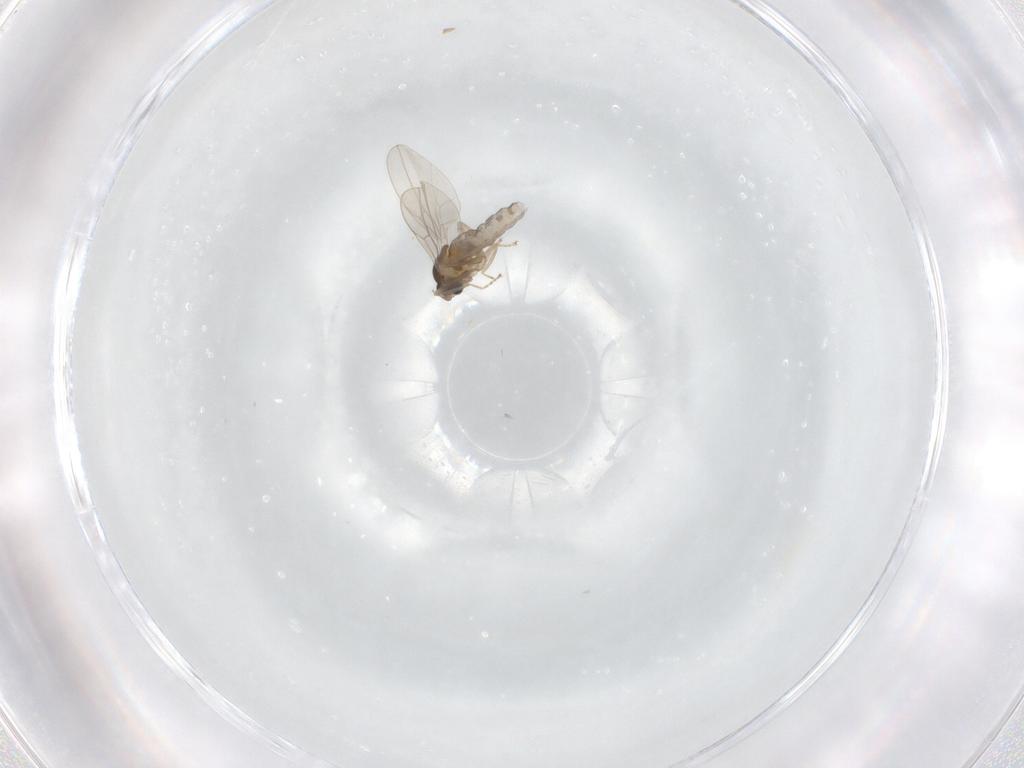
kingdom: Animalia
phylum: Arthropoda
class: Insecta
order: Diptera
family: Cecidomyiidae
